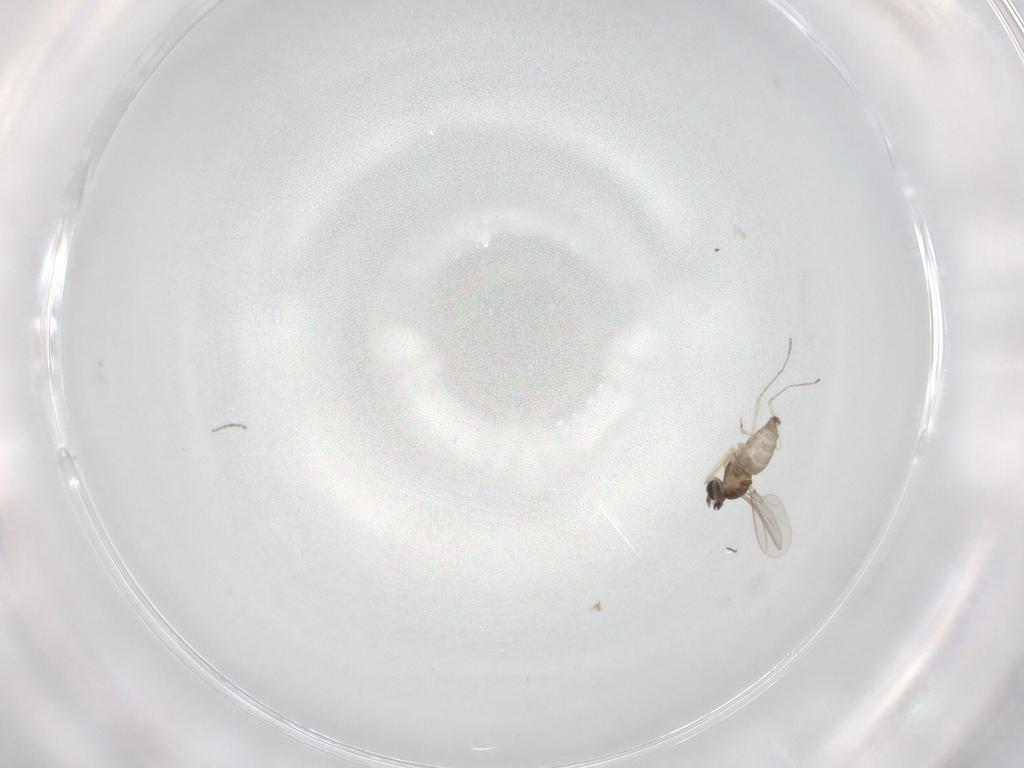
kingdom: Animalia
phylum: Arthropoda
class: Insecta
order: Diptera
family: Cecidomyiidae
